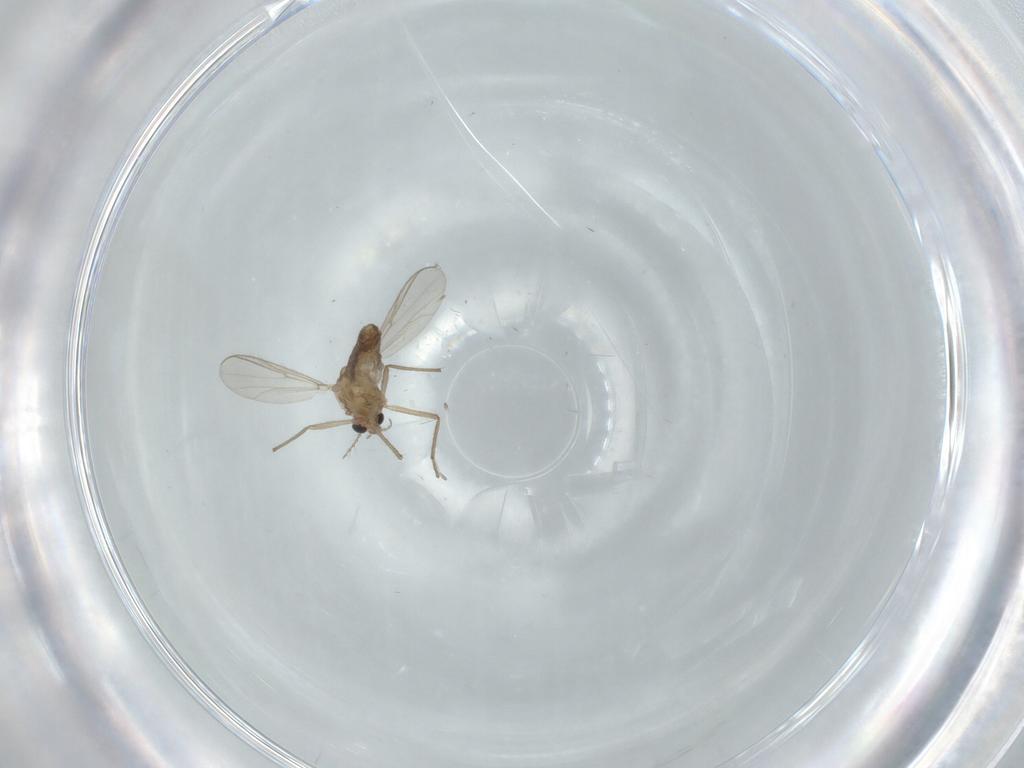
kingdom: Animalia
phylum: Arthropoda
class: Insecta
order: Diptera
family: Chironomidae
